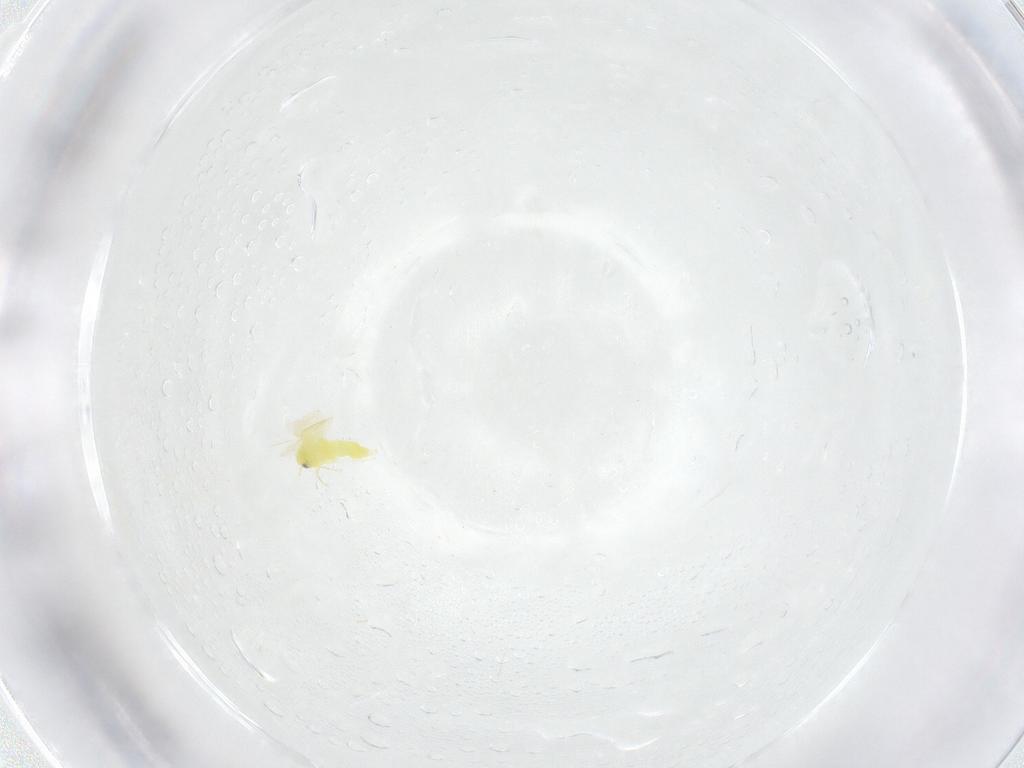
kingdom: Animalia
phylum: Arthropoda
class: Insecta
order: Hemiptera
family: Aleyrodidae
